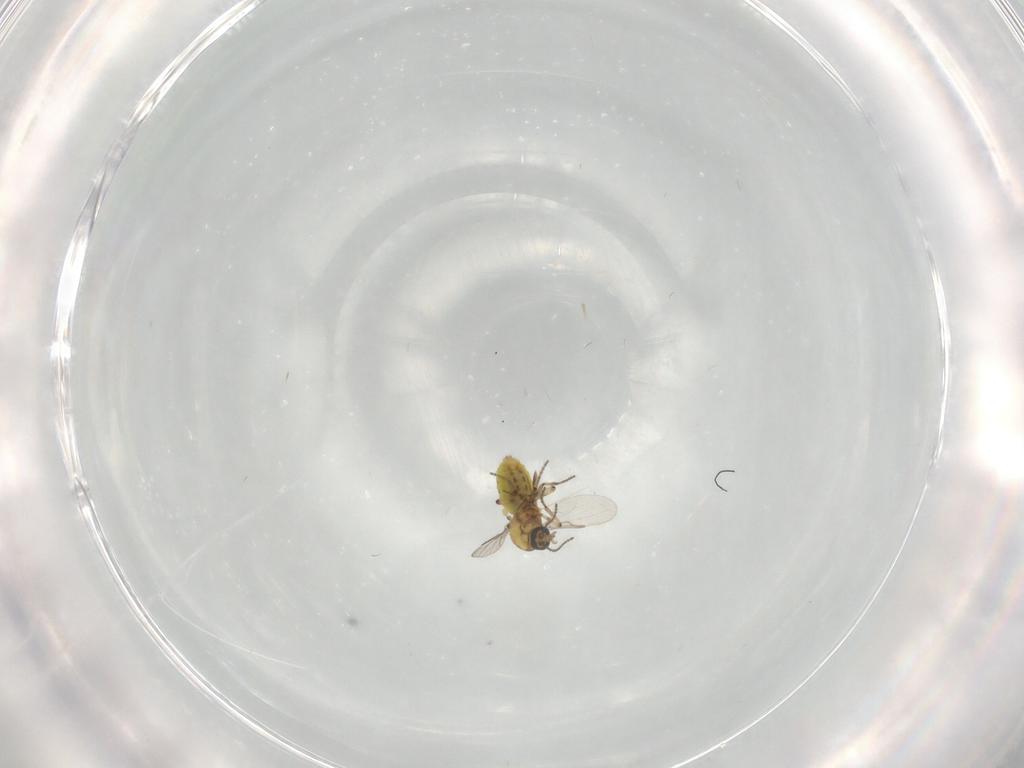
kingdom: Animalia
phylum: Arthropoda
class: Insecta
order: Diptera
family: Ceratopogonidae
